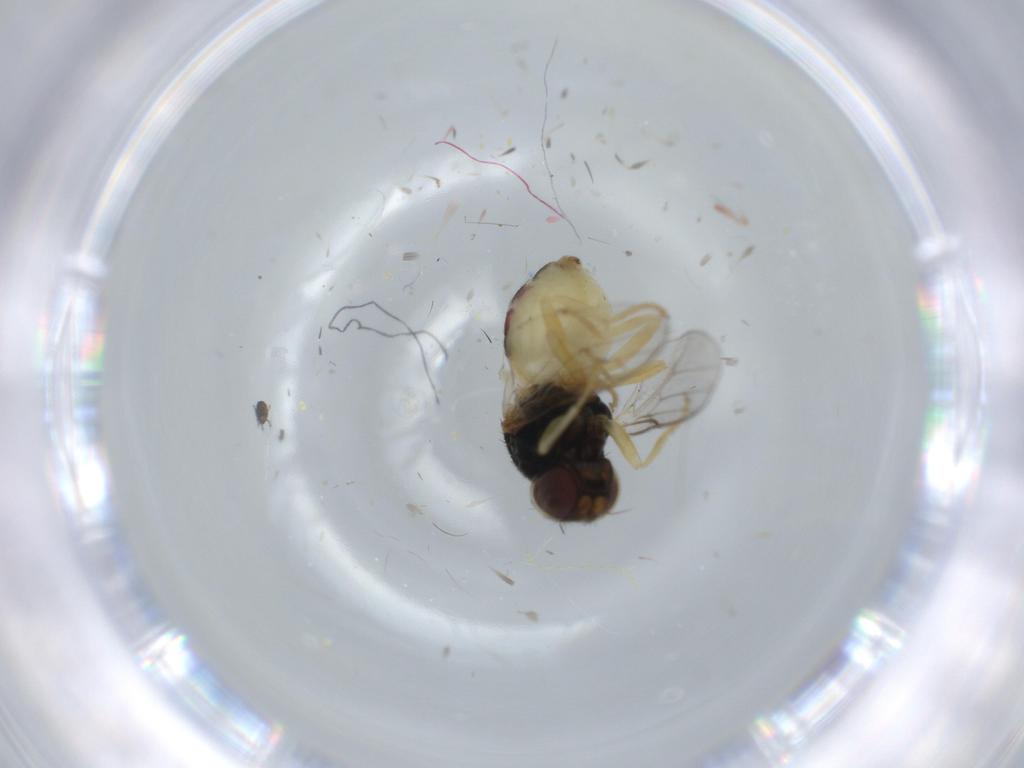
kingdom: Animalia
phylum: Arthropoda
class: Insecta
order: Diptera
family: Chloropidae
